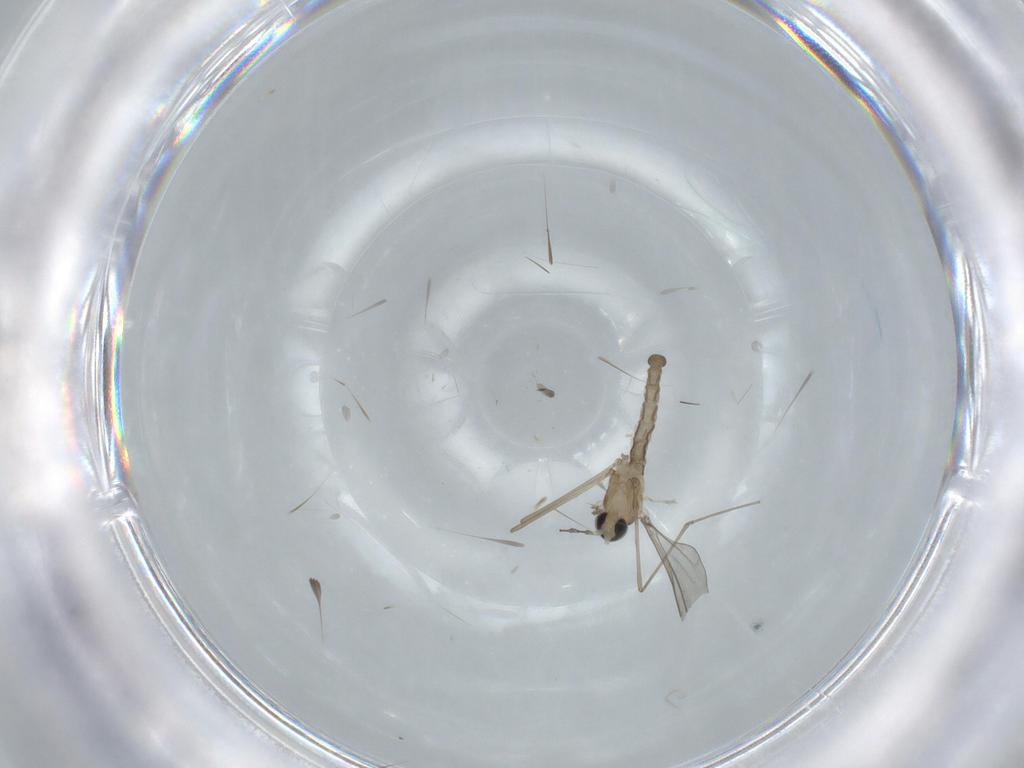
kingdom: Animalia
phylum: Arthropoda
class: Insecta
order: Diptera
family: Cecidomyiidae
